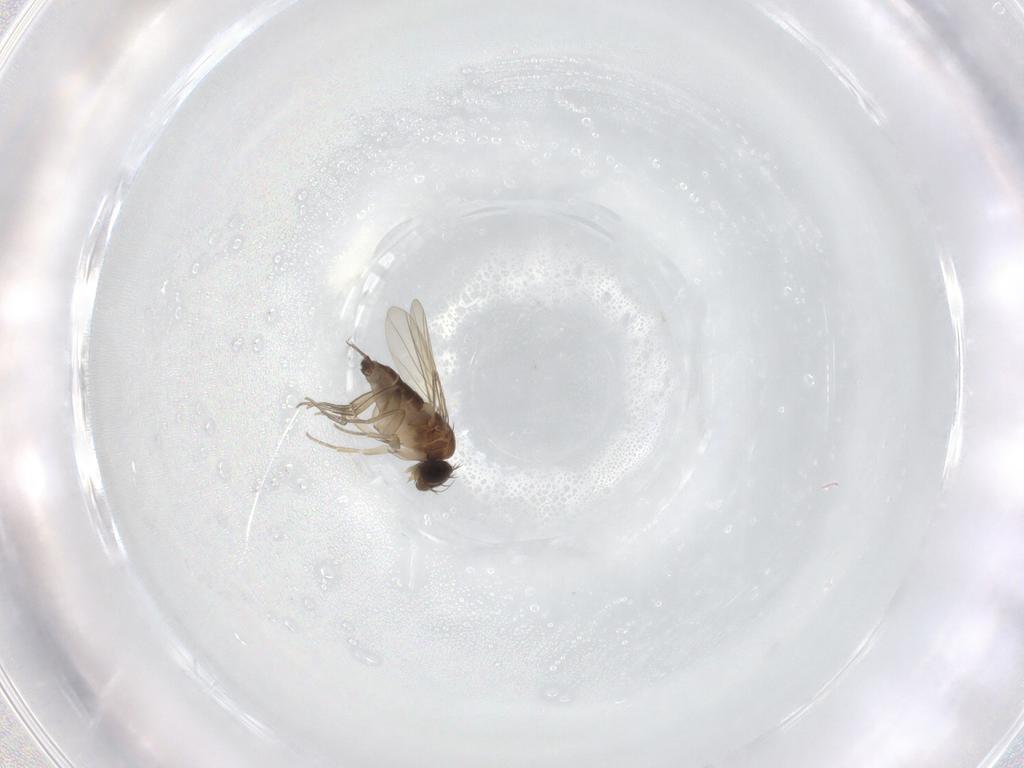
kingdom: Animalia
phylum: Arthropoda
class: Insecta
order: Diptera
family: Phoridae
